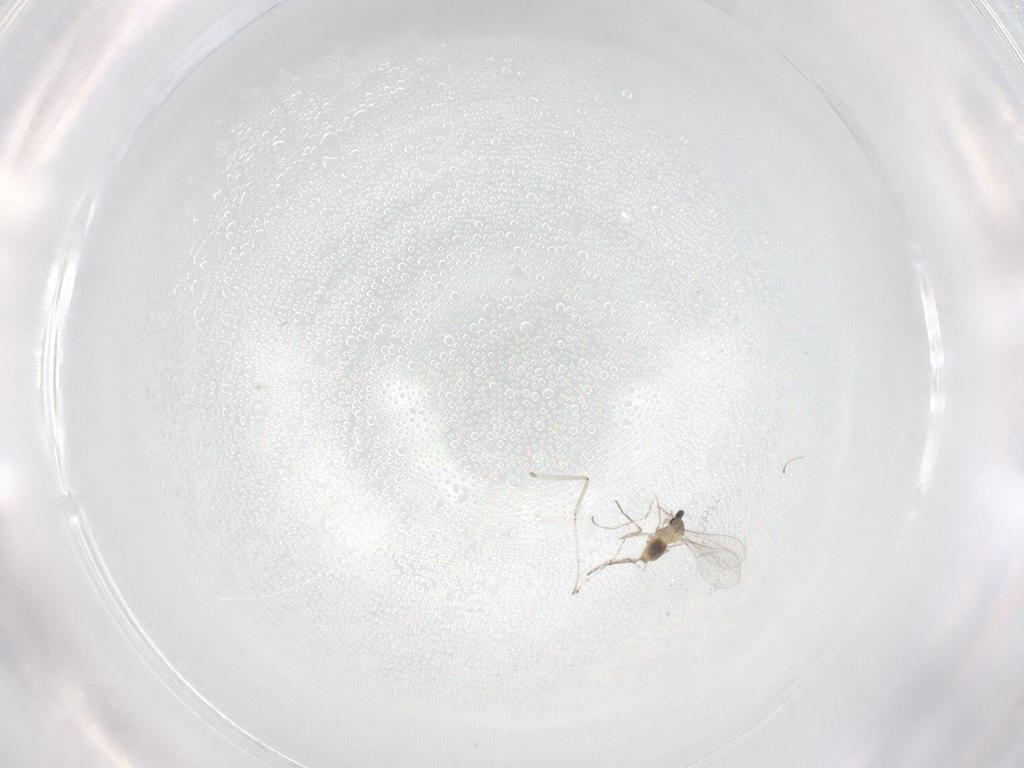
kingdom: Animalia
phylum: Arthropoda
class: Insecta
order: Diptera
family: Cecidomyiidae
